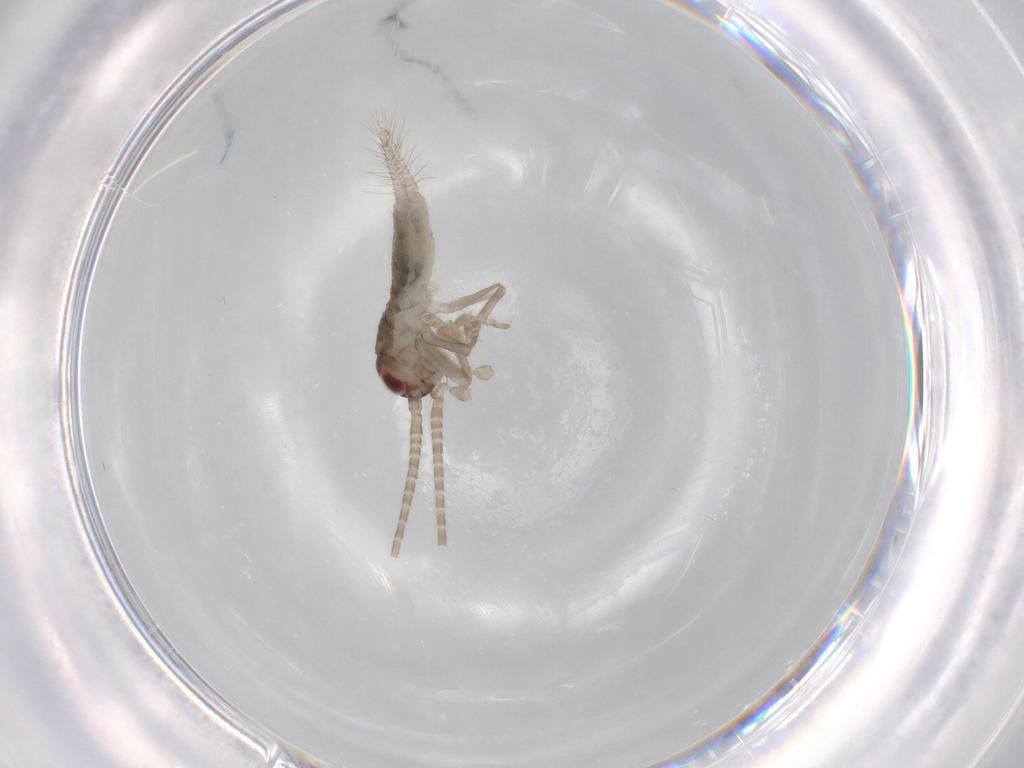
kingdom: Animalia
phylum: Arthropoda
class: Insecta
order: Orthoptera
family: Gryllidae
